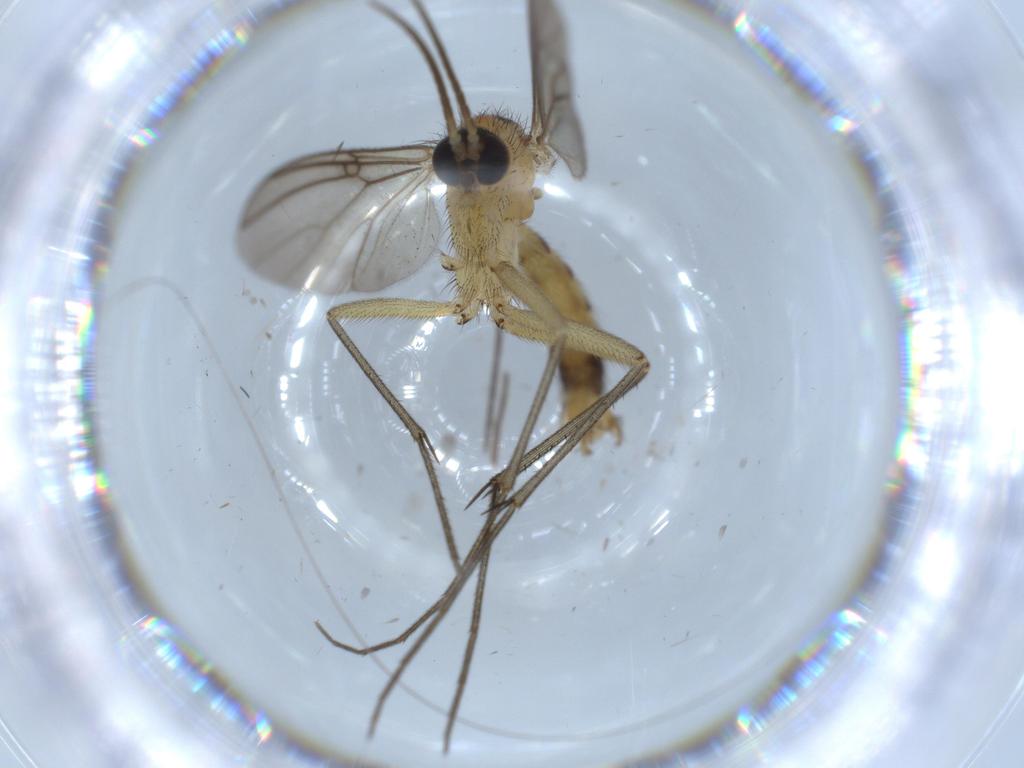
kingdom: Animalia
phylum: Arthropoda
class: Insecta
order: Diptera
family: Mycetophilidae
